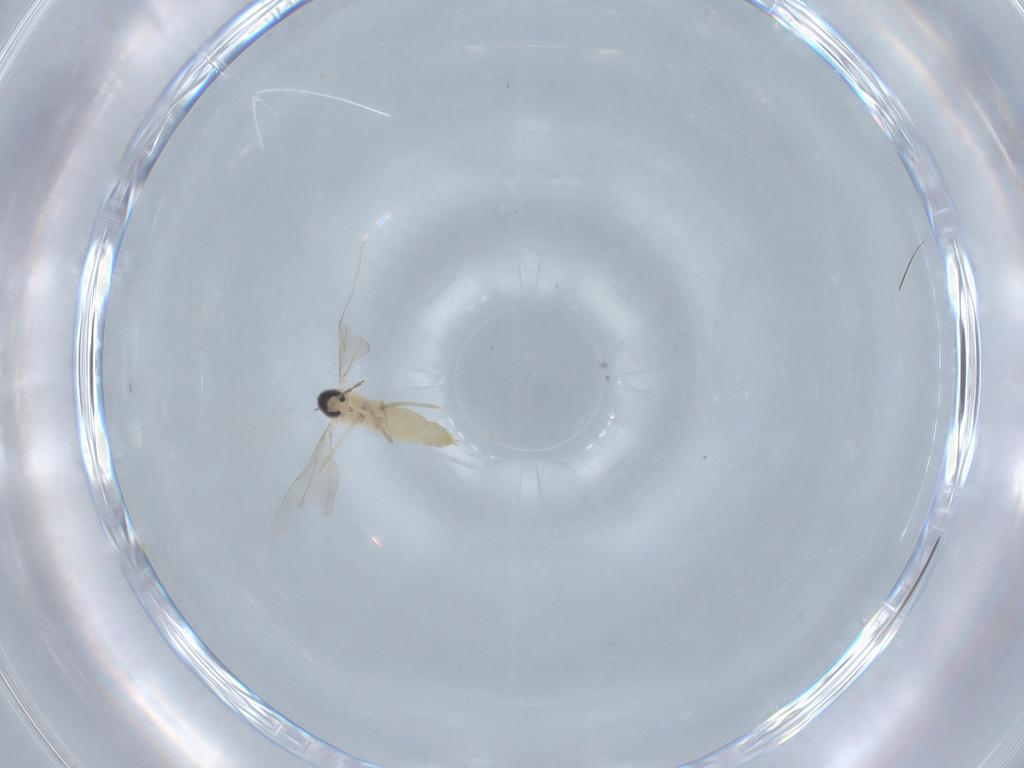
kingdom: Animalia
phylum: Arthropoda
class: Insecta
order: Diptera
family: Cecidomyiidae
